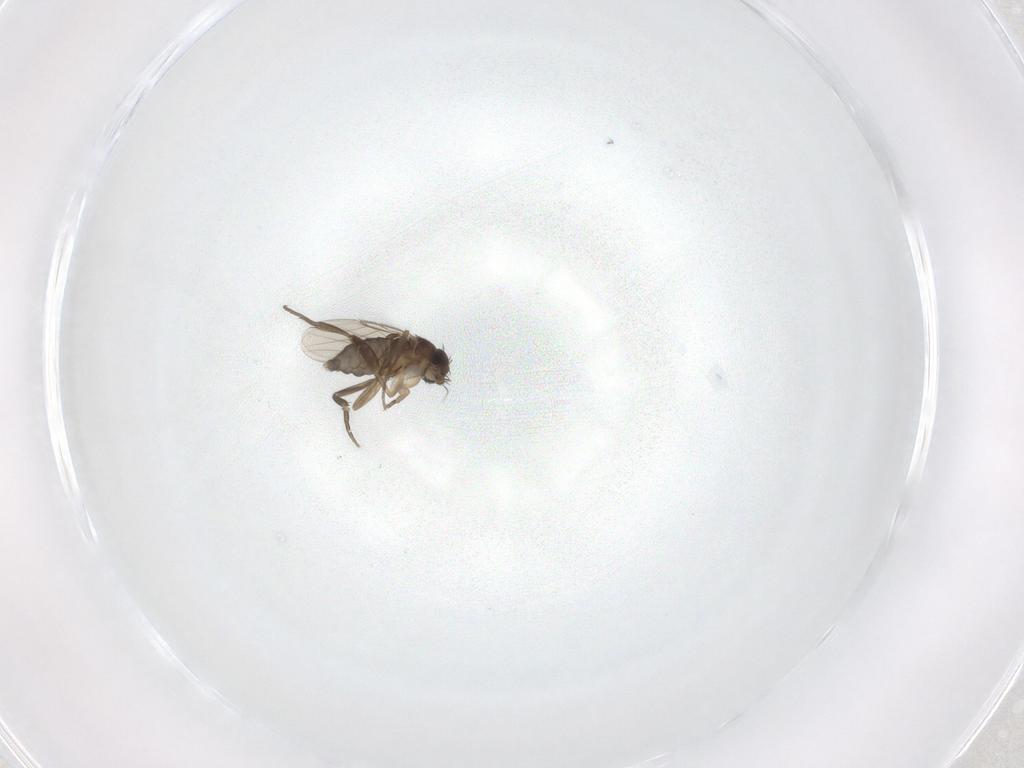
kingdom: Animalia
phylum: Arthropoda
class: Insecta
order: Diptera
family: Phoridae
